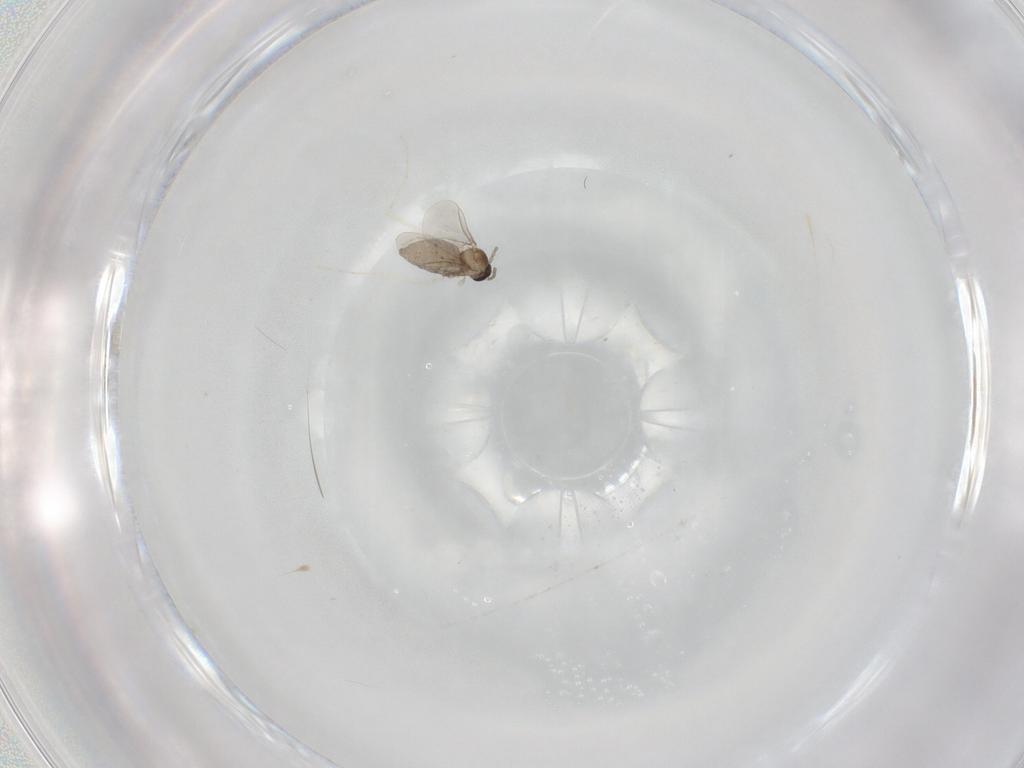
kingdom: Animalia
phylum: Arthropoda
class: Insecta
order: Diptera
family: Cecidomyiidae
